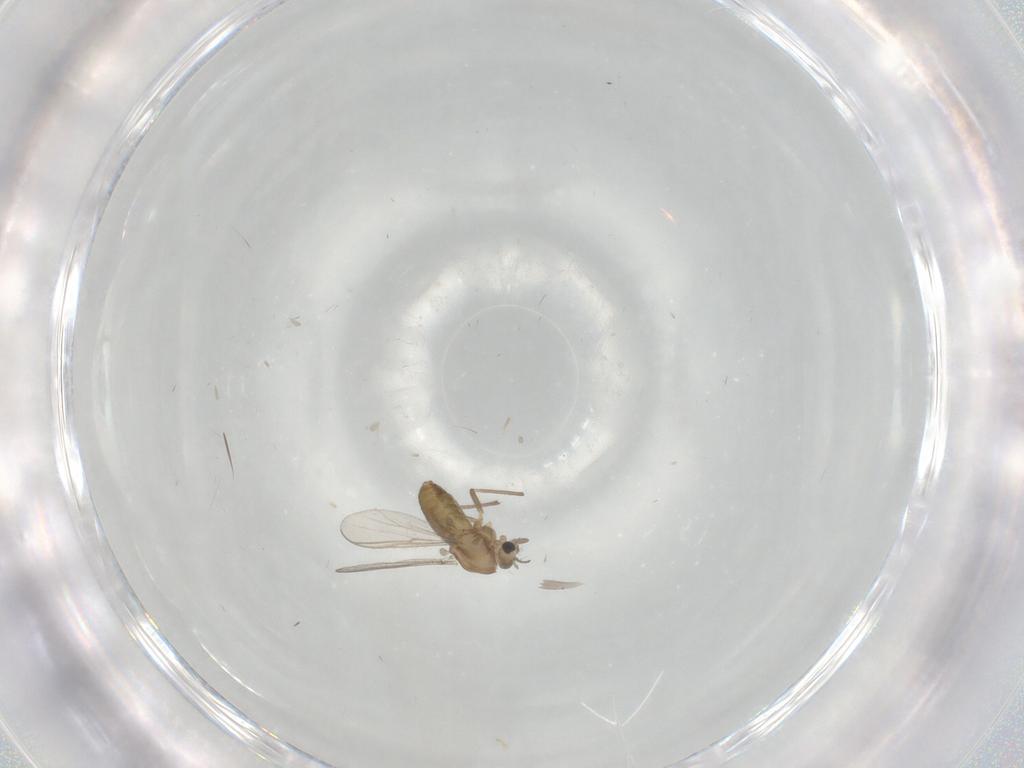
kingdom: Animalia
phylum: Arthropoda
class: Insecta
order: Diptera
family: Chironomidae
